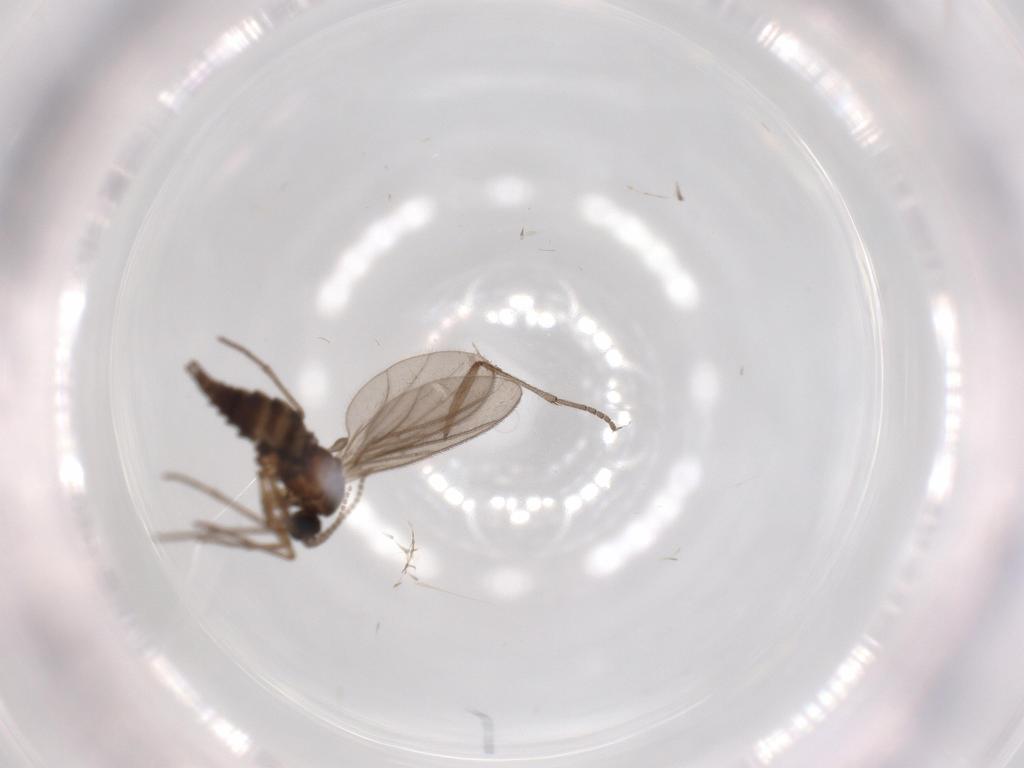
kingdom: Animalia
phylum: Arthropoda
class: Insecta
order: Diptera
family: Sciaridae
